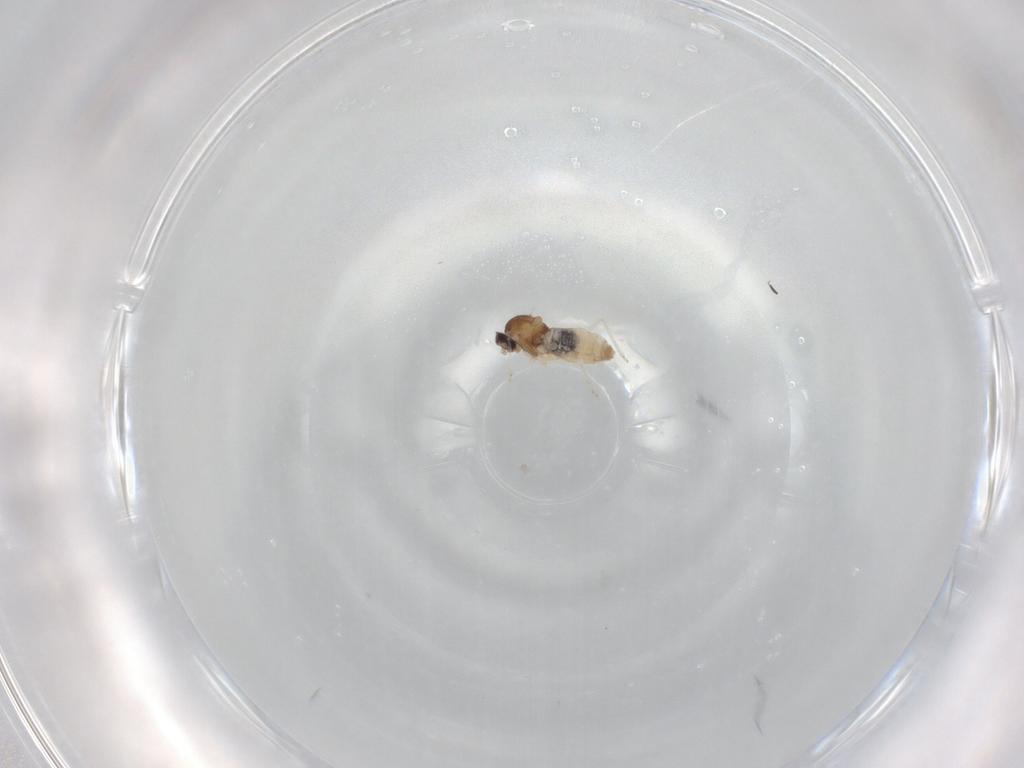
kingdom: Animalia
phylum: Arthropoda
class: Insecta
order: Diptera
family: Cecidomyiidae
